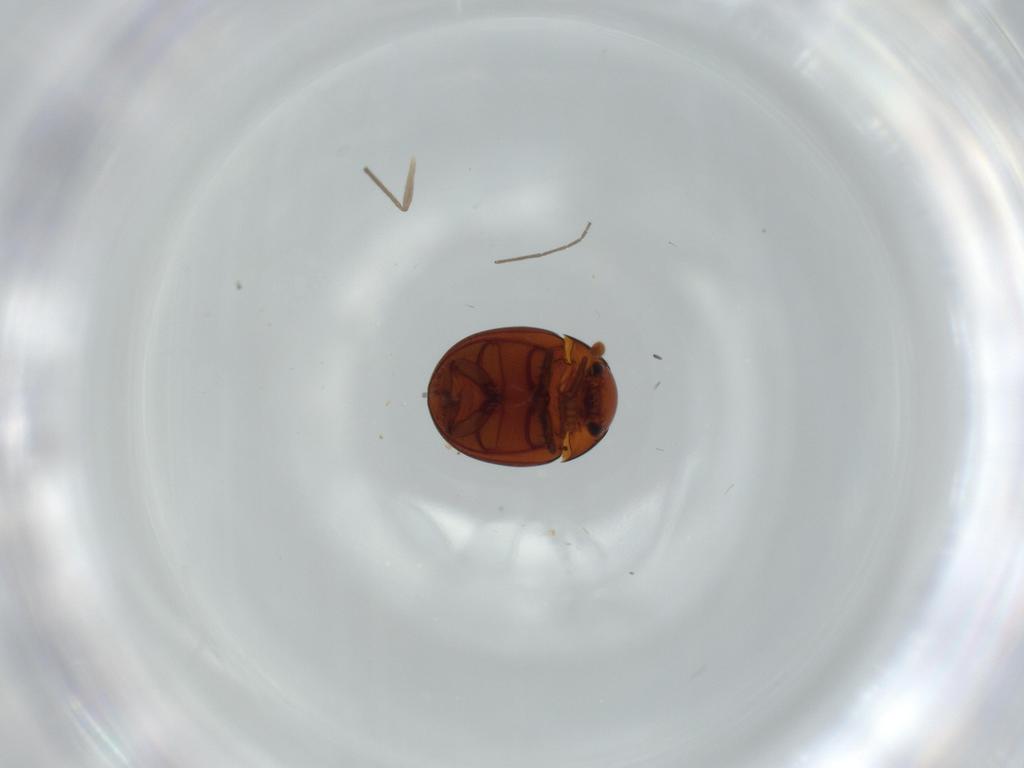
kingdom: Animalia
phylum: Arthropoda
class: Insecta
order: Coleoptera
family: Leiodidae
